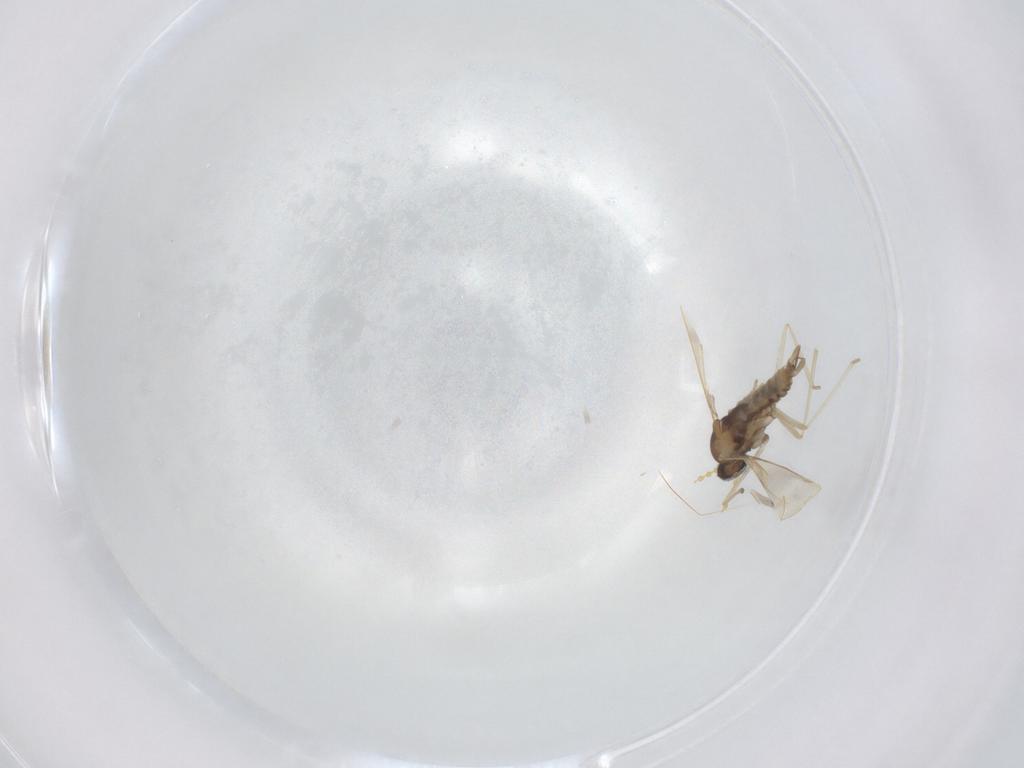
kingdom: Animalia
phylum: Arthropoda
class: Insecta
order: Diptera
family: Cecidomyiidae
